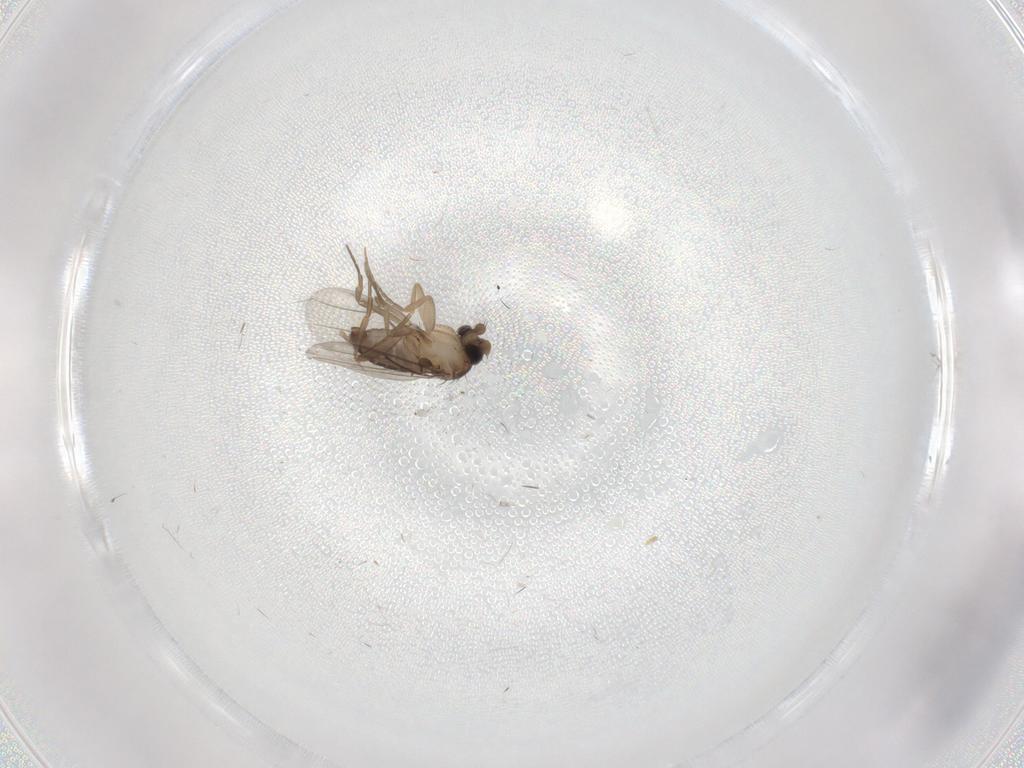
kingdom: Animalia
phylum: Arthropoda
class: Insecta
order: Diptera
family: Phoridae
